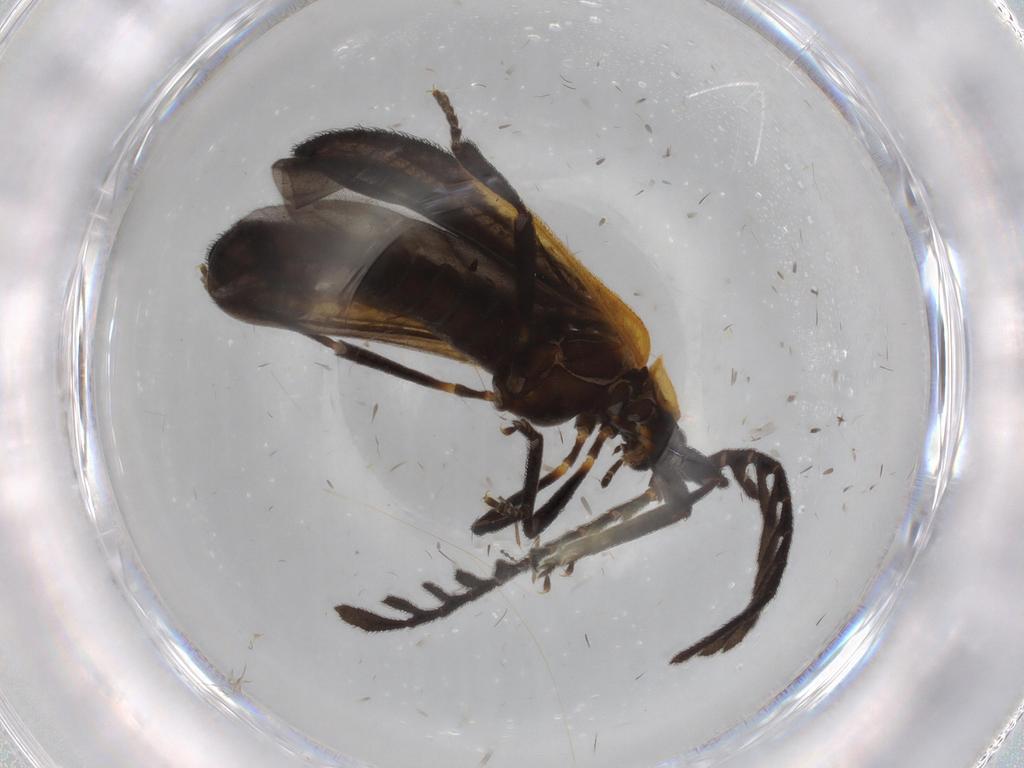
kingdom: Animalia
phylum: Arthropoda
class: Insecta
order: Coleoptera
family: Lycidae
